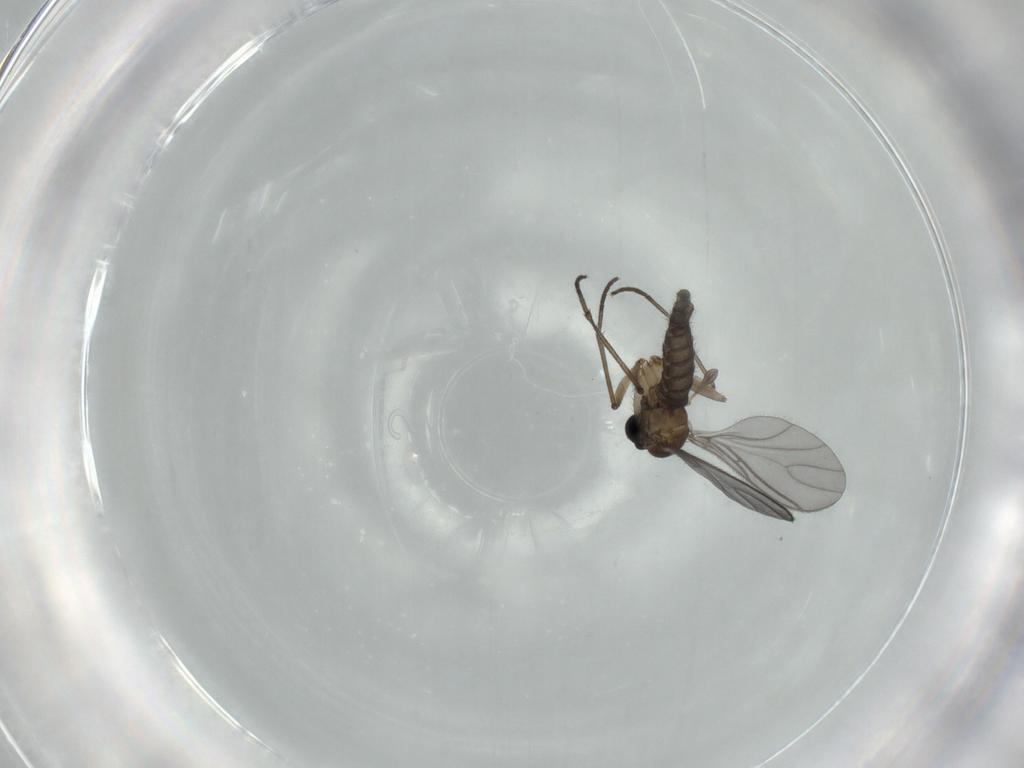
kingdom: Animalia
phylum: Arthropoda
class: Insecta
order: Diptera
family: Milichiidae
